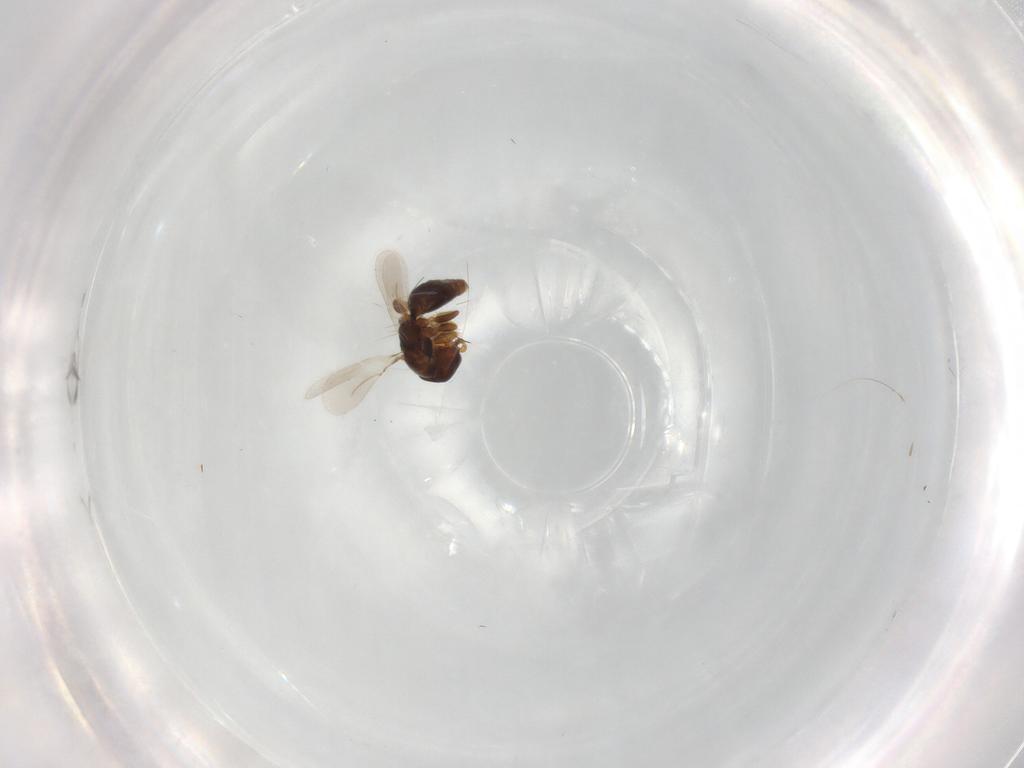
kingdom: Animalia
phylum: Arthropoda
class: Insecta
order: Hymenoptera
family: Bethylidae
